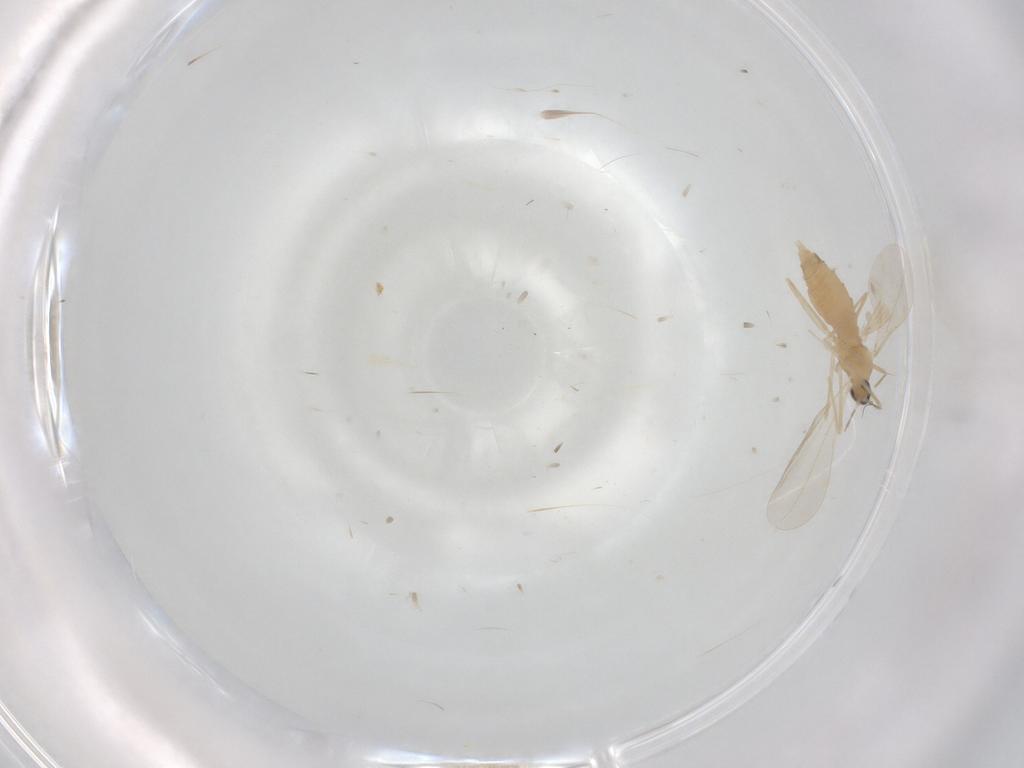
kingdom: Animalia
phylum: Arthropoda
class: Insecta
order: Diptera
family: Cecidomyiidae
